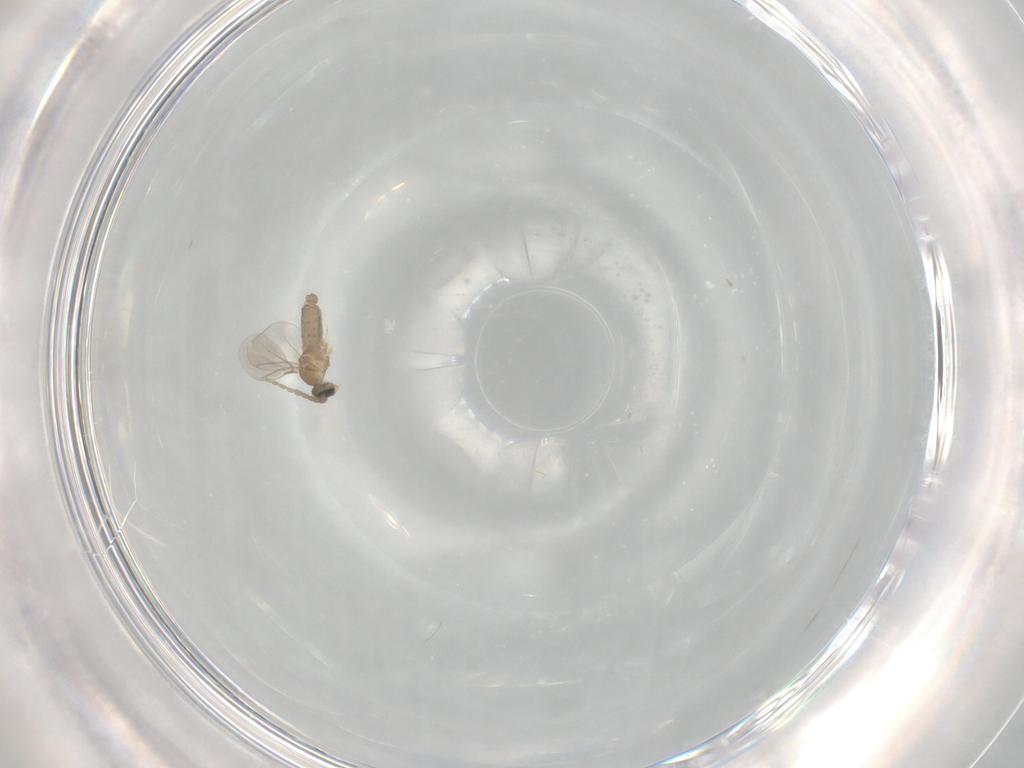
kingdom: Animalia
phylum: Arthropoda
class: Insecta
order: Diptera
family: Cecidomyiidae
